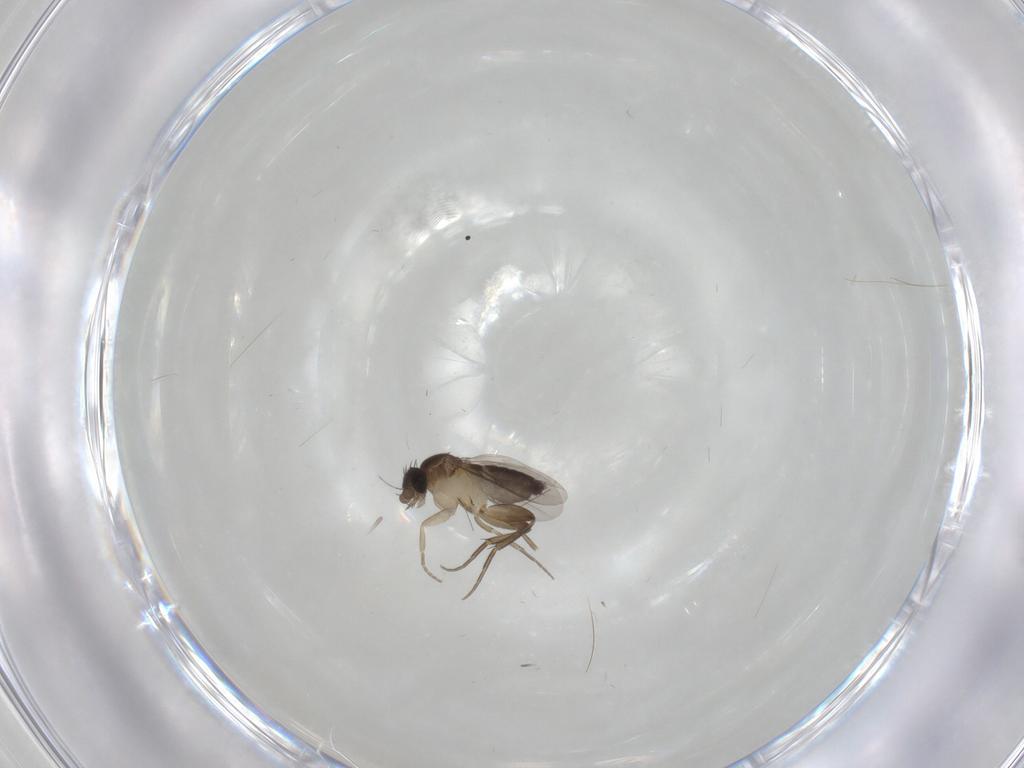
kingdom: Animalia
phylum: Arthropoda
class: Insecta
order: Diptera
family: Phoridae
